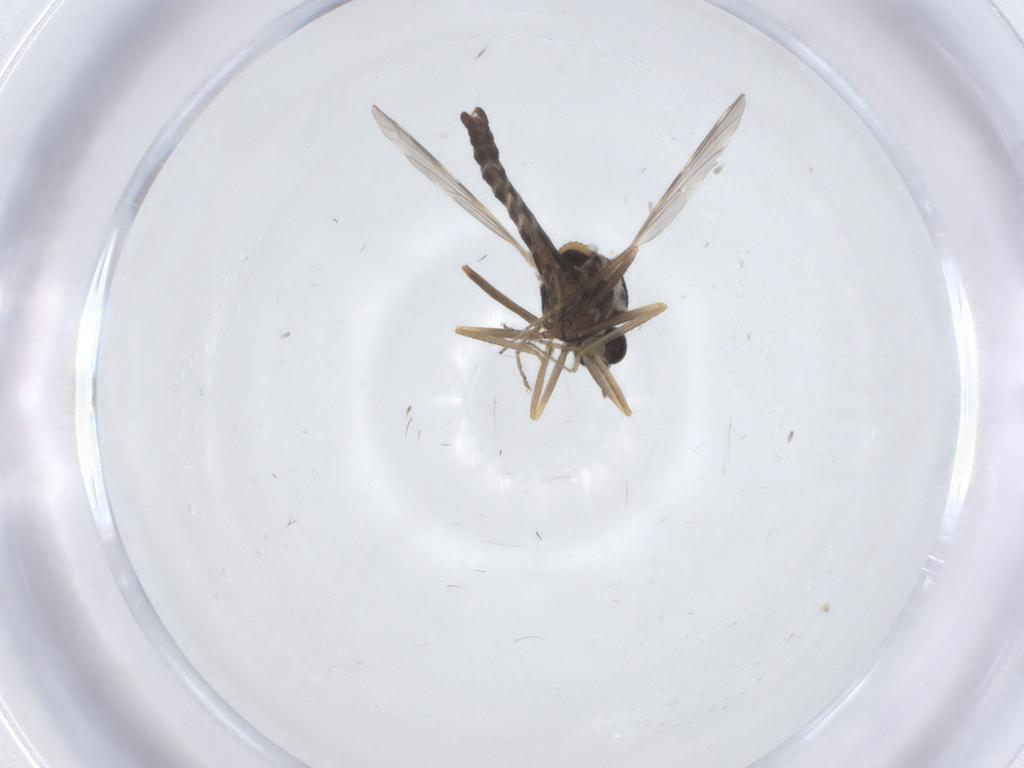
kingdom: Animalia
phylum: Arthropoda
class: Insecta
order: Diptera
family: Ceratopogonidae
